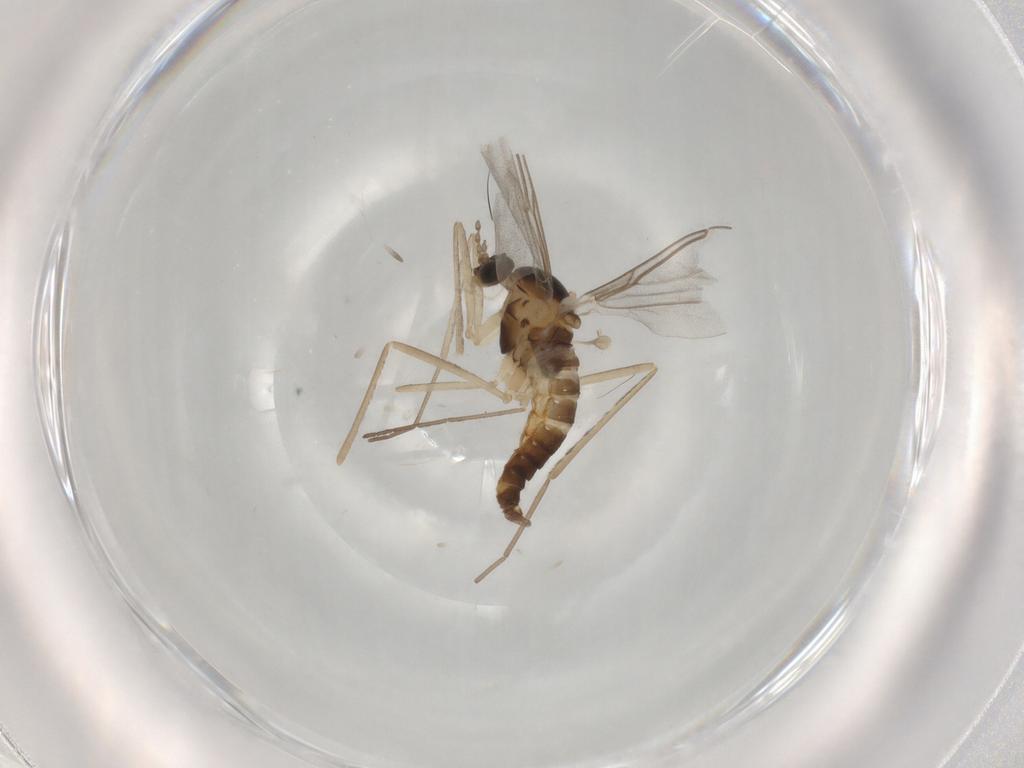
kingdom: Animalia
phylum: Arthropoda
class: Insecta
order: Diptera
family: Cecidomyiidae
